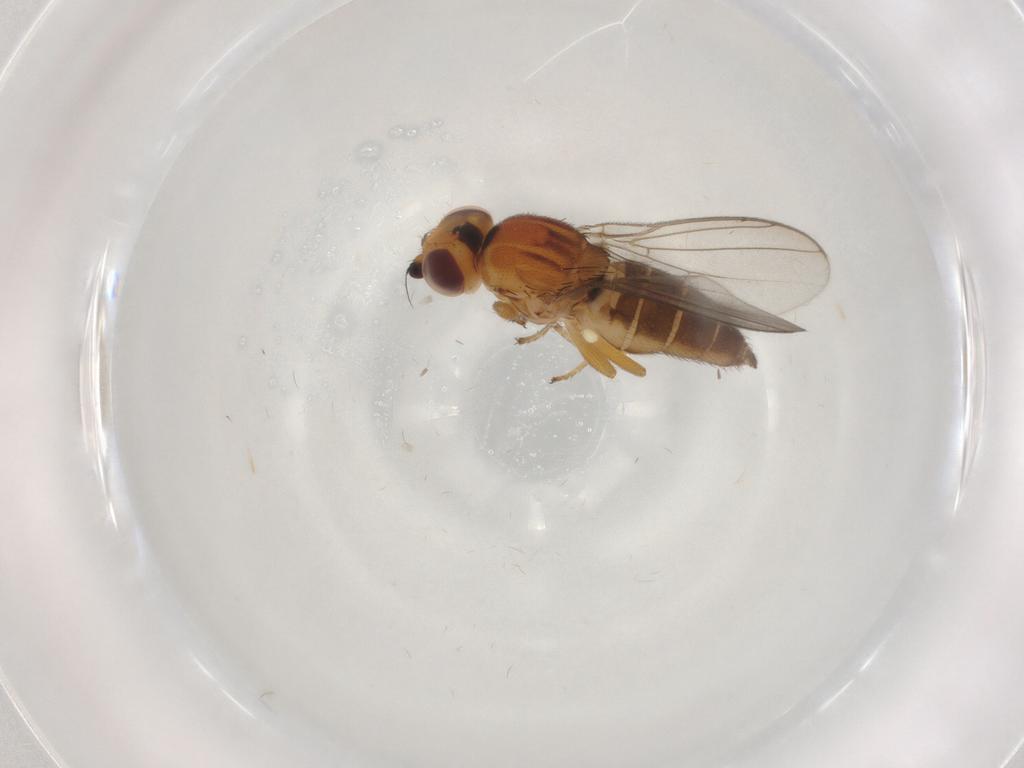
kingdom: Animalia
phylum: Arthropoda
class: Insecta
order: Diptera
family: Chloropidae
